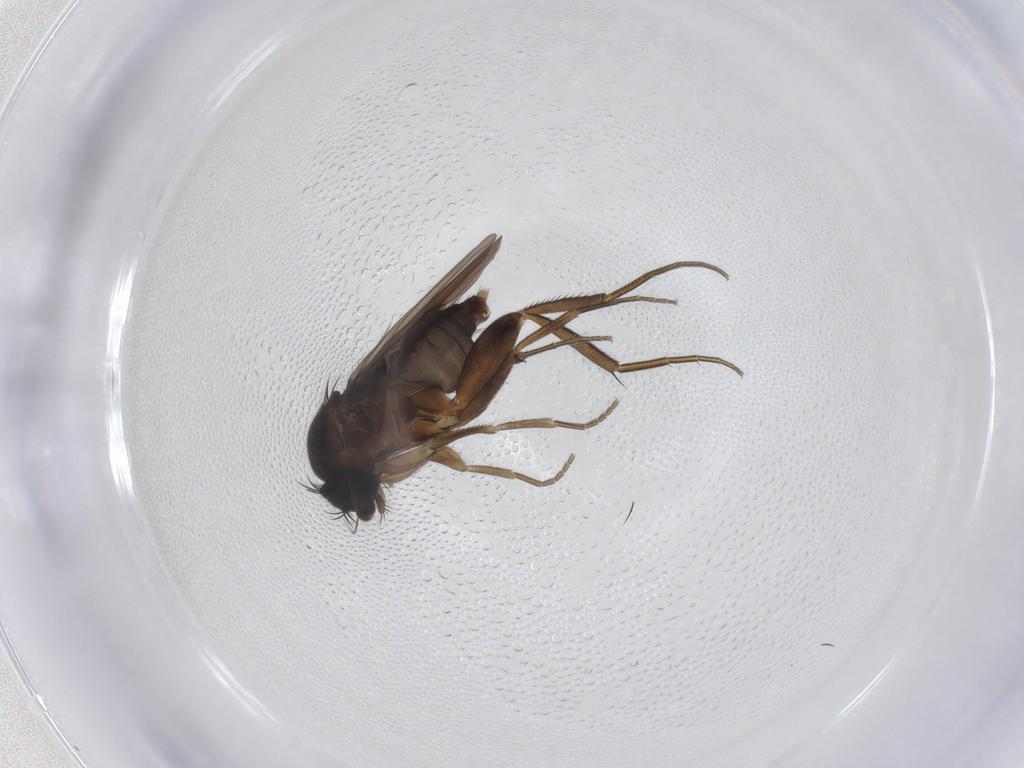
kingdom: Animalia
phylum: Arthropoda
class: Insecta
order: Diptera
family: Phoridae
